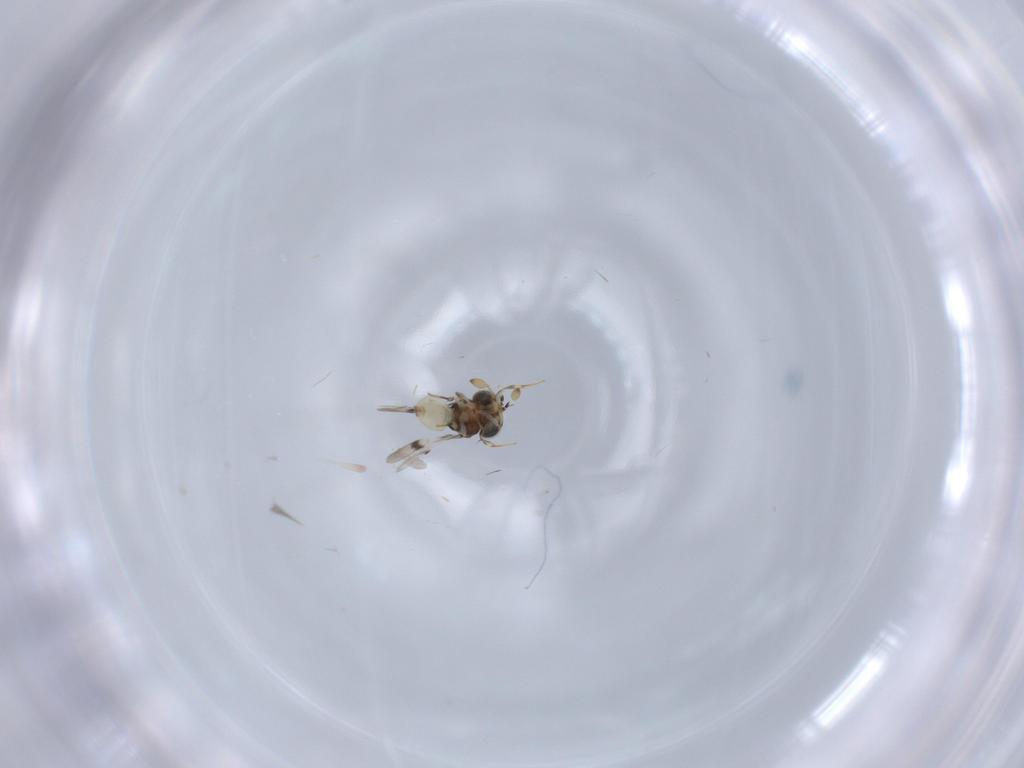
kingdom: Animalia
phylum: Arthropoda
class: Insecta
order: Hymenoptera
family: Scelionidae
